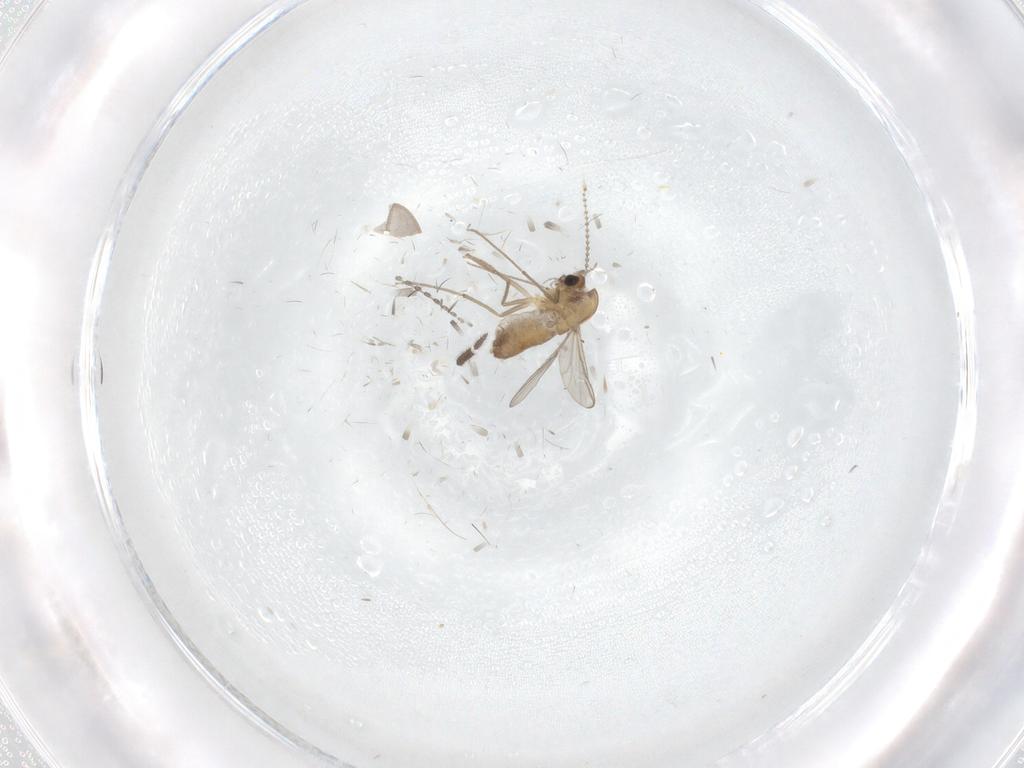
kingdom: Animalia
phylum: Arthropoda
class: Insecta
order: Diptera
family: Chironomidae
